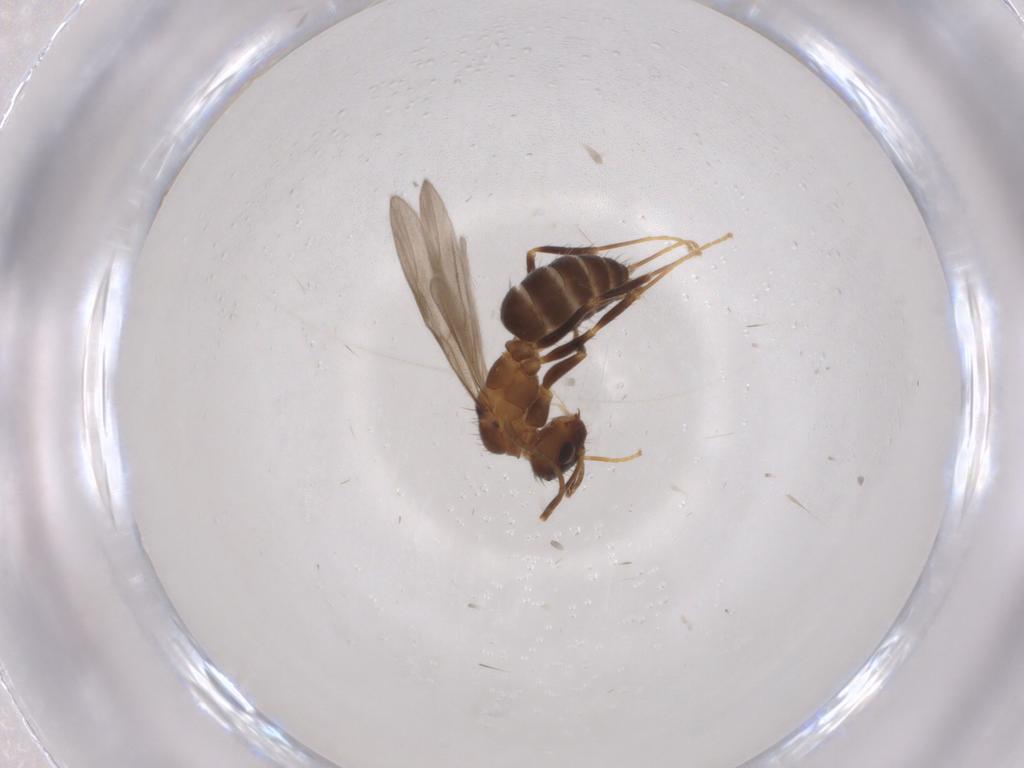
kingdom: Animalia
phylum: Arthropoda
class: Insecta
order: Hymenoptera
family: Formicidae
